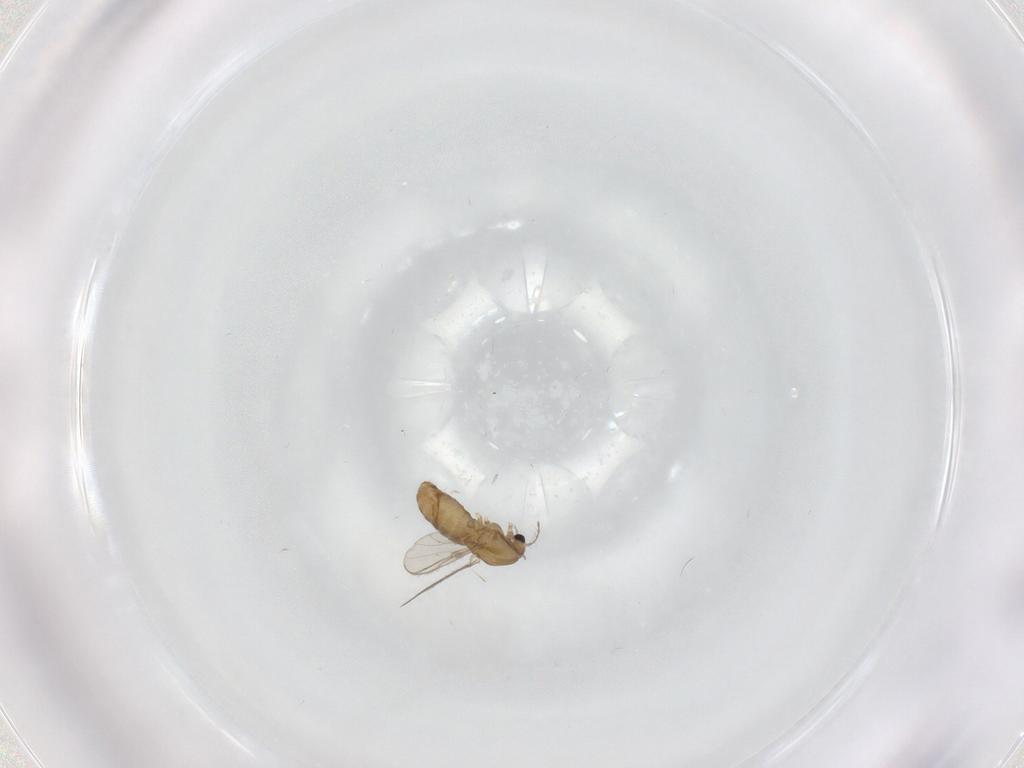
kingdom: Animalia
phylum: Arthropoda
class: Insecta
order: Diptera
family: Chironomidae
